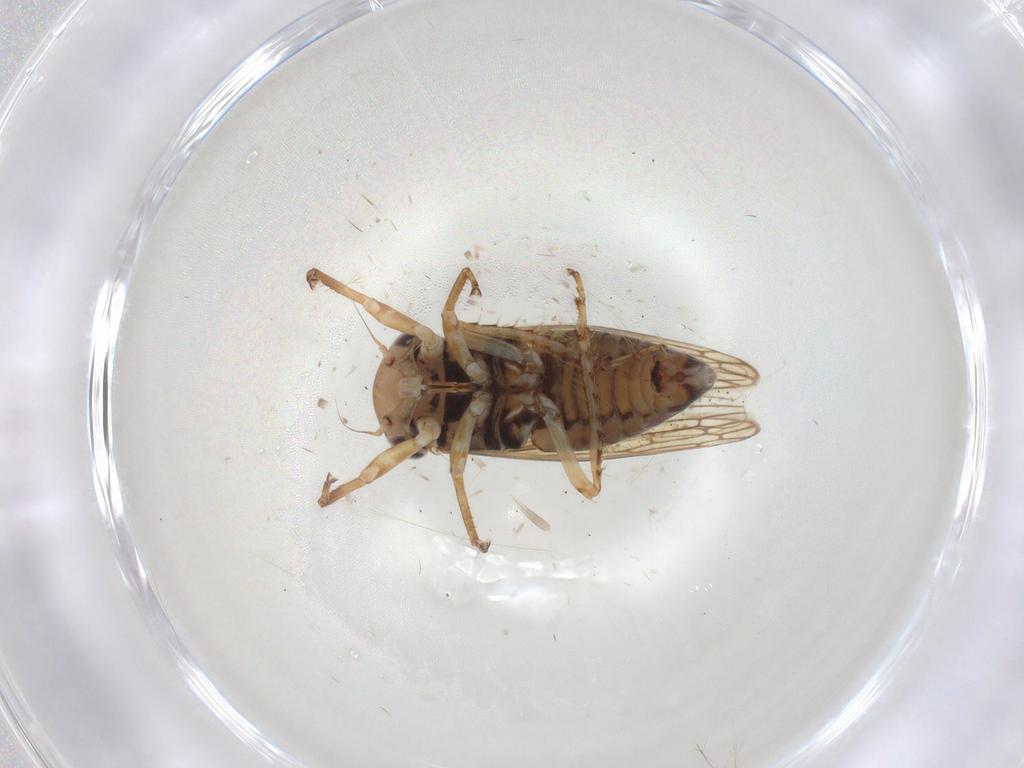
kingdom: Animalia
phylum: Arthropoda
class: Insecta
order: Hemiptera
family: Cicadellidae
